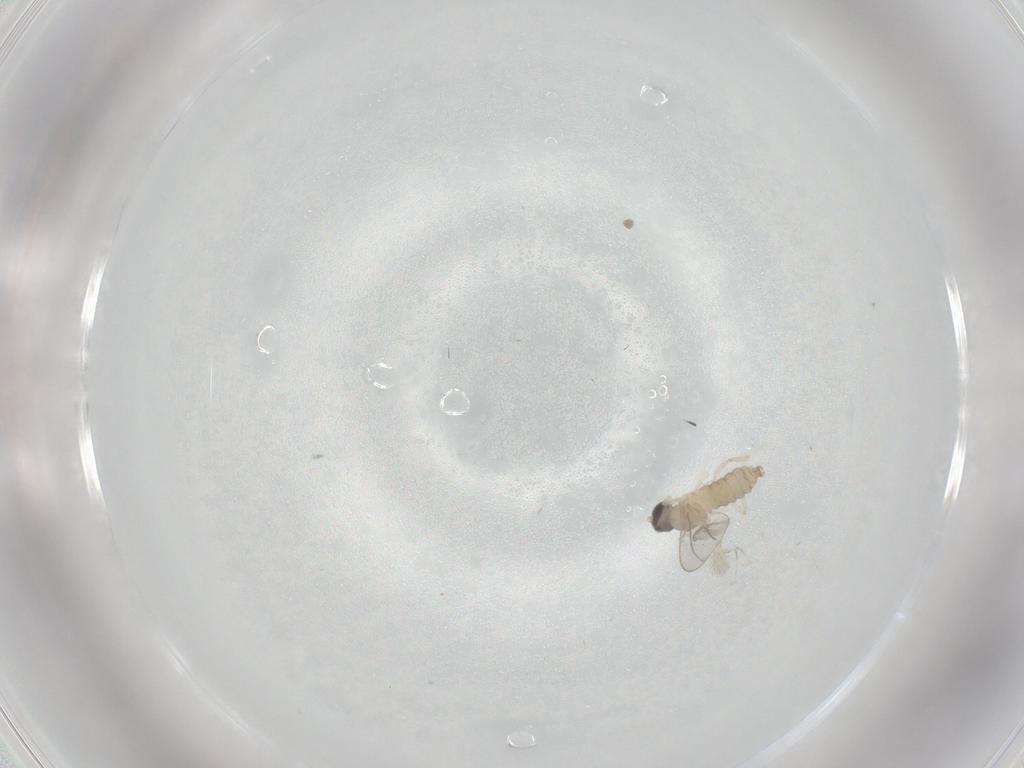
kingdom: Animalia
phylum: Arthropoda
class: Insecta
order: Diptera
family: Cecidomyiidae
